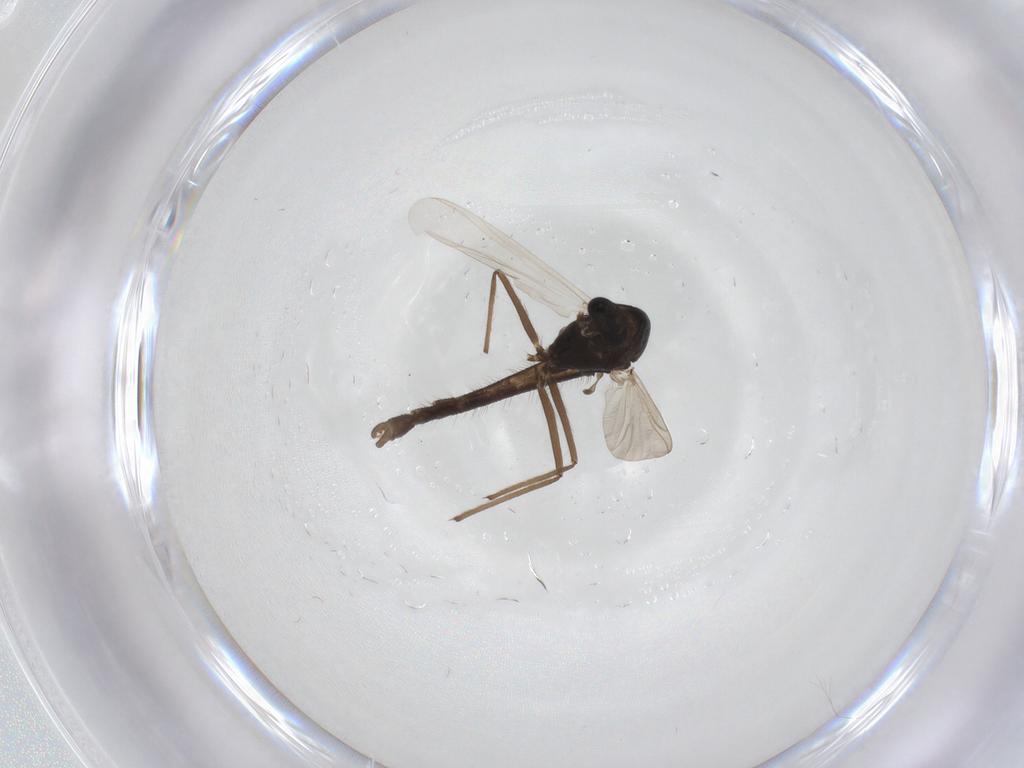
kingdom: Animalia
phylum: Arthropoda
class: Insecta
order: Diptera
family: Chironomidae
